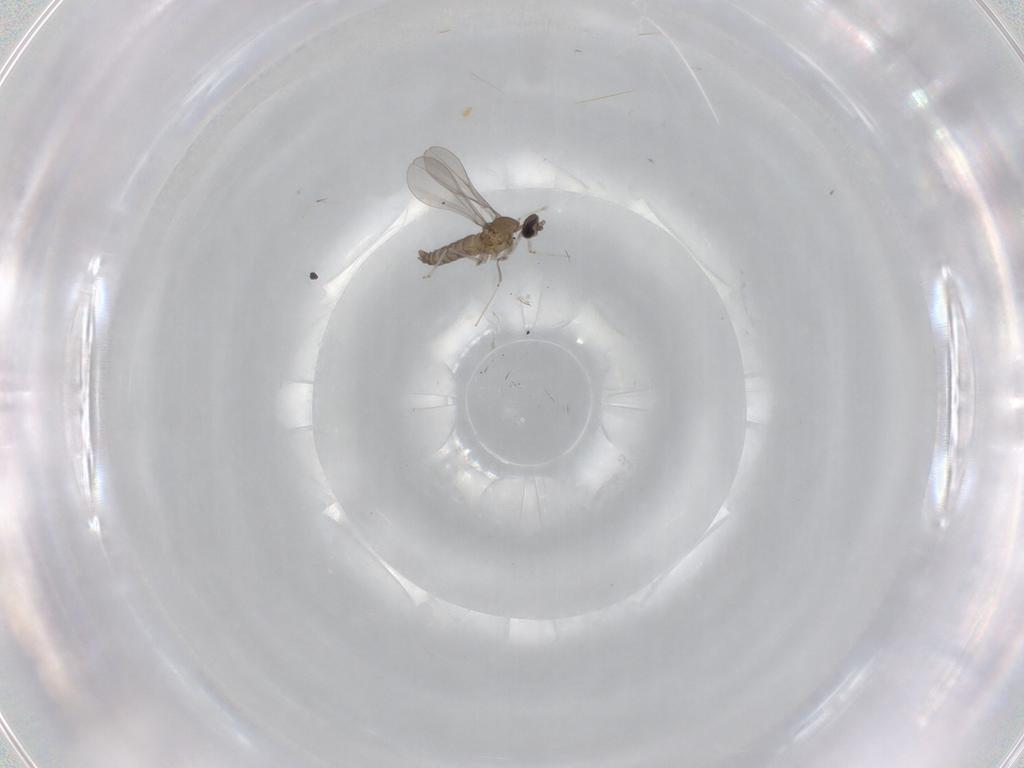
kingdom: Animalia
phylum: Arthropoda
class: Insecta
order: Diptera
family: Cecidomyiidae
